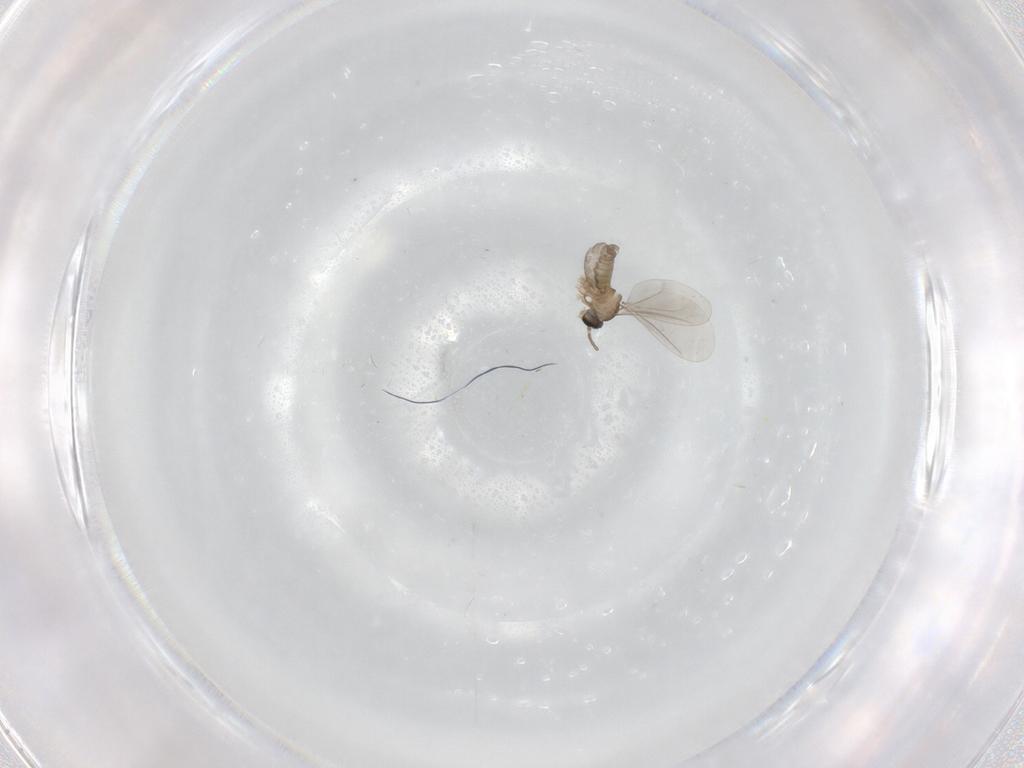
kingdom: Animalia
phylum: Arthropoda
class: Insecta
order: Diptera
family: Cecidomyiidae
